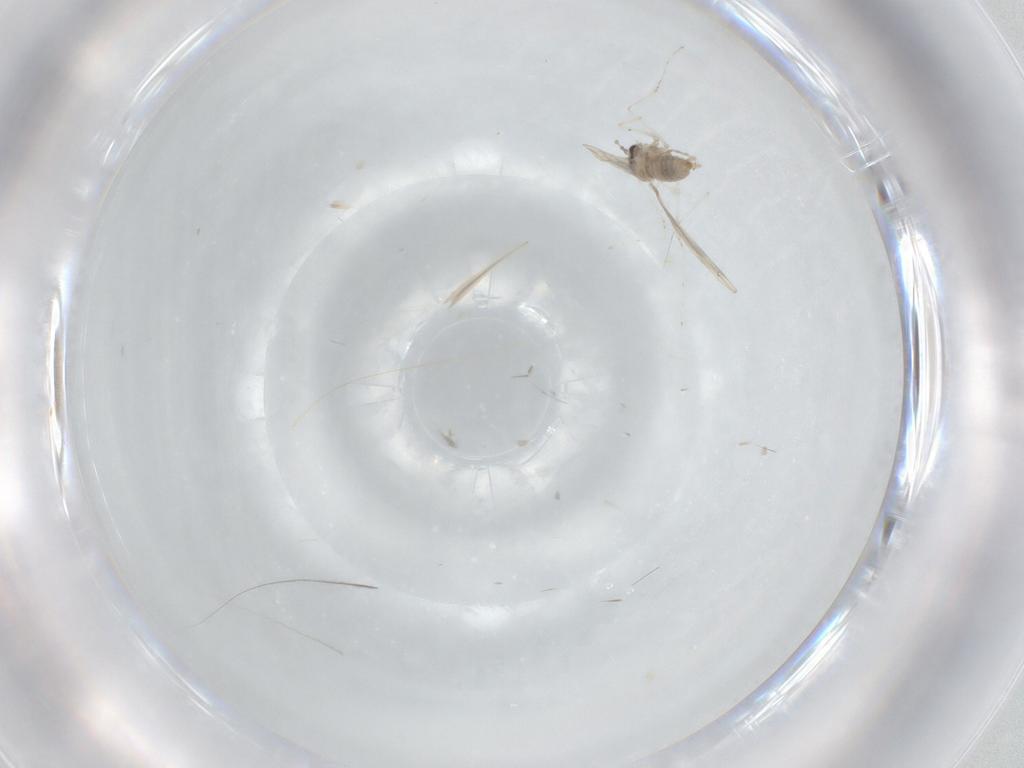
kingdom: Animalia
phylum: Arthropoda
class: Insecta
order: Diptera
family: Cecidomyiidae
